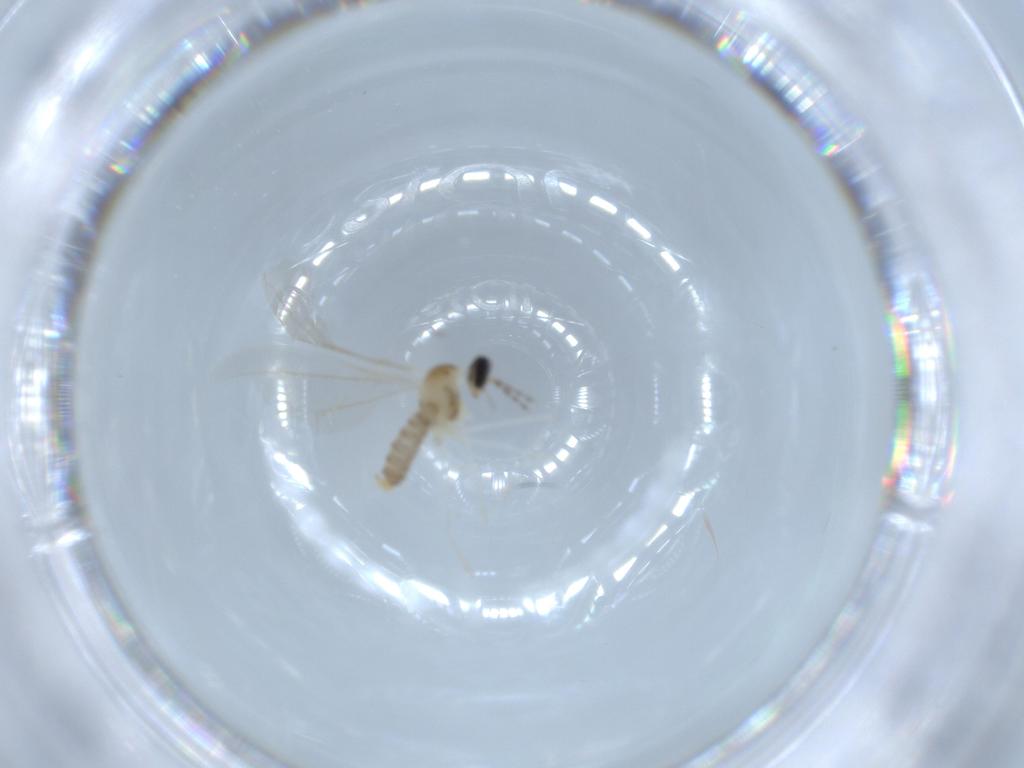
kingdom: Animalia
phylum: Arthropoda
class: Insecta
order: Diptera
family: Cecidomyiidae
